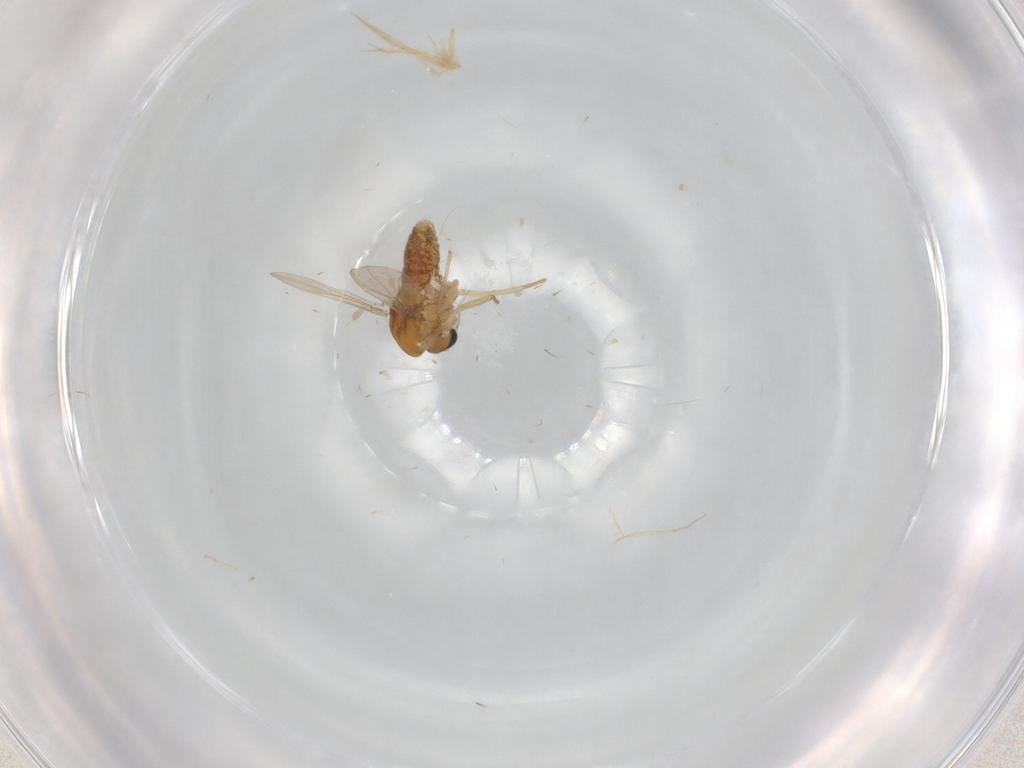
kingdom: Animalia
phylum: Arthropoda
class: Insecta
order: Diptera
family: Chironomidae
